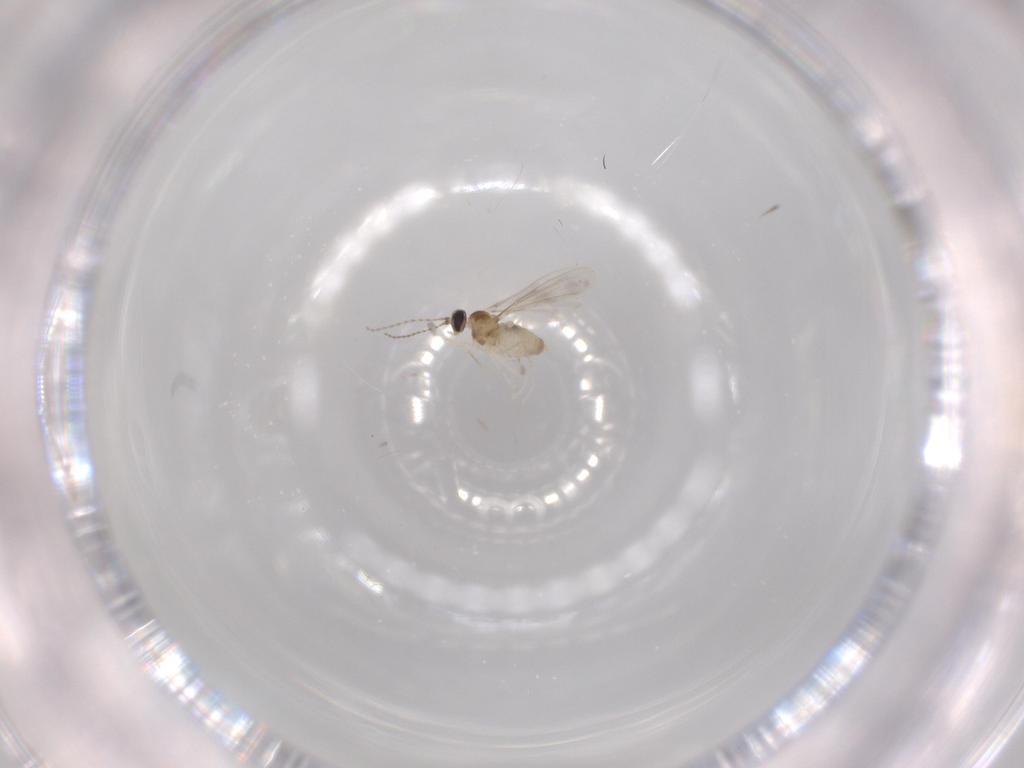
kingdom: Animalia
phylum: Arthropoda
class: Insecta
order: Diptera
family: Cecidomyiidae
